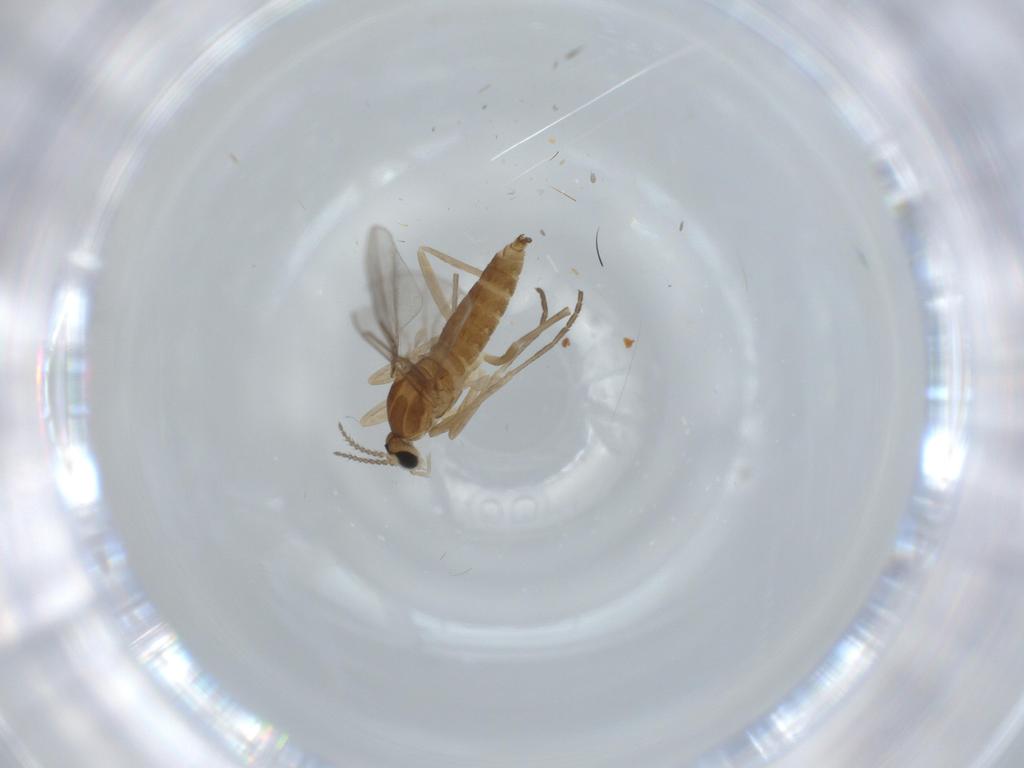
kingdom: Animalia
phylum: Arthropoda
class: Insecta
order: Diptera
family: Cecidomyiidae
